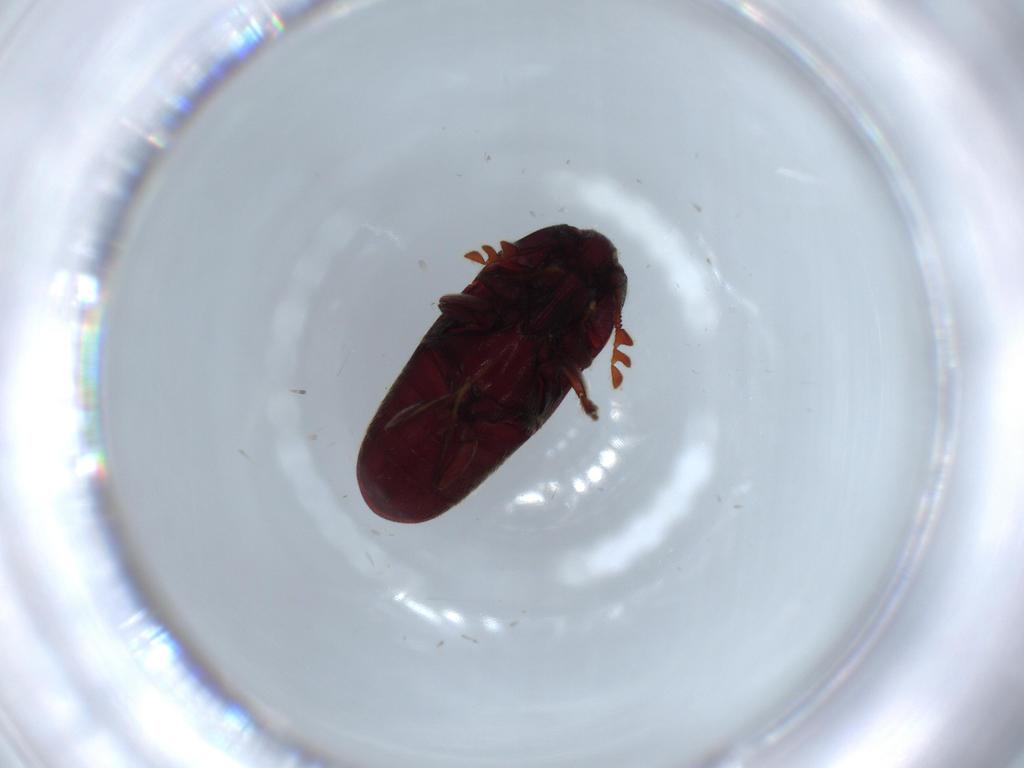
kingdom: Animalia
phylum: Arthropoda
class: Insecta
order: Coleoptera
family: Throscidae
